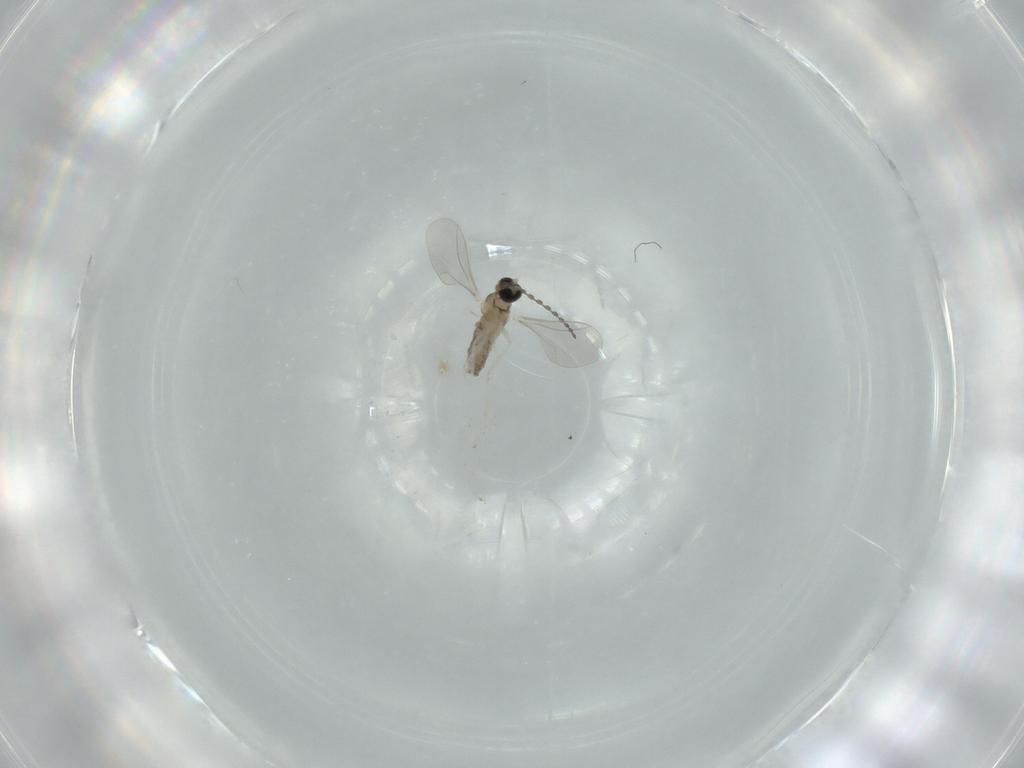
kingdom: Animalia
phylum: Arthropoda
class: Insecta
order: Diptera
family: Cecidomyiidae
